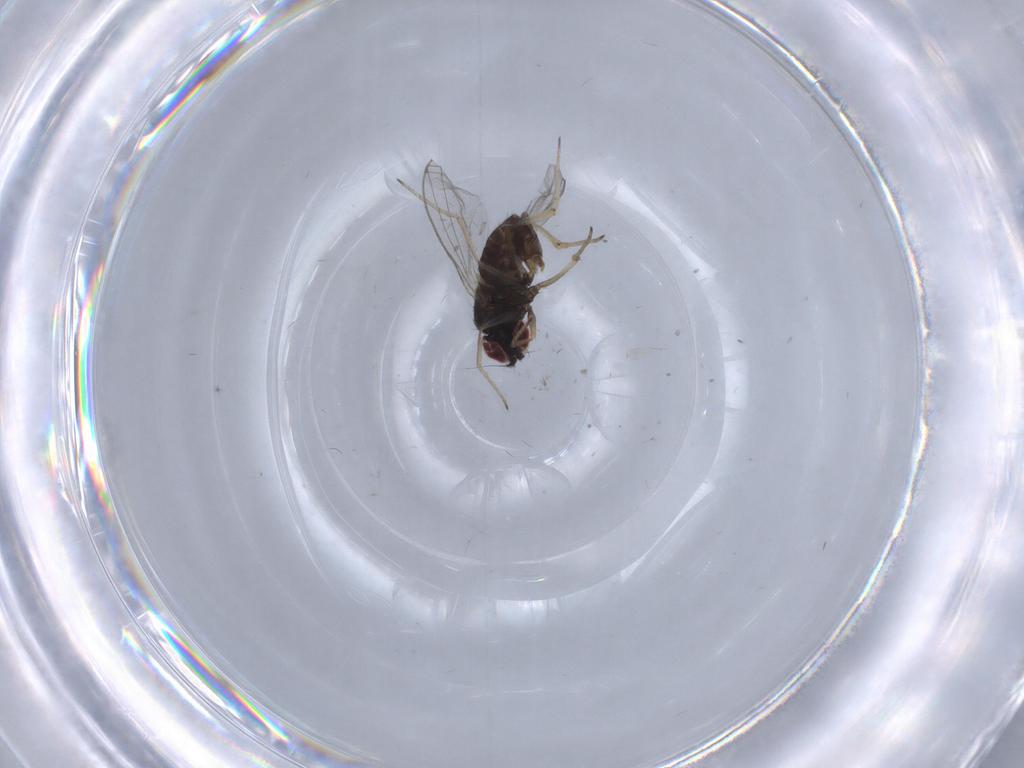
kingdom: Animalia
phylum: Arthropoda
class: Insecta
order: Diptera
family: Dolichopodidae
